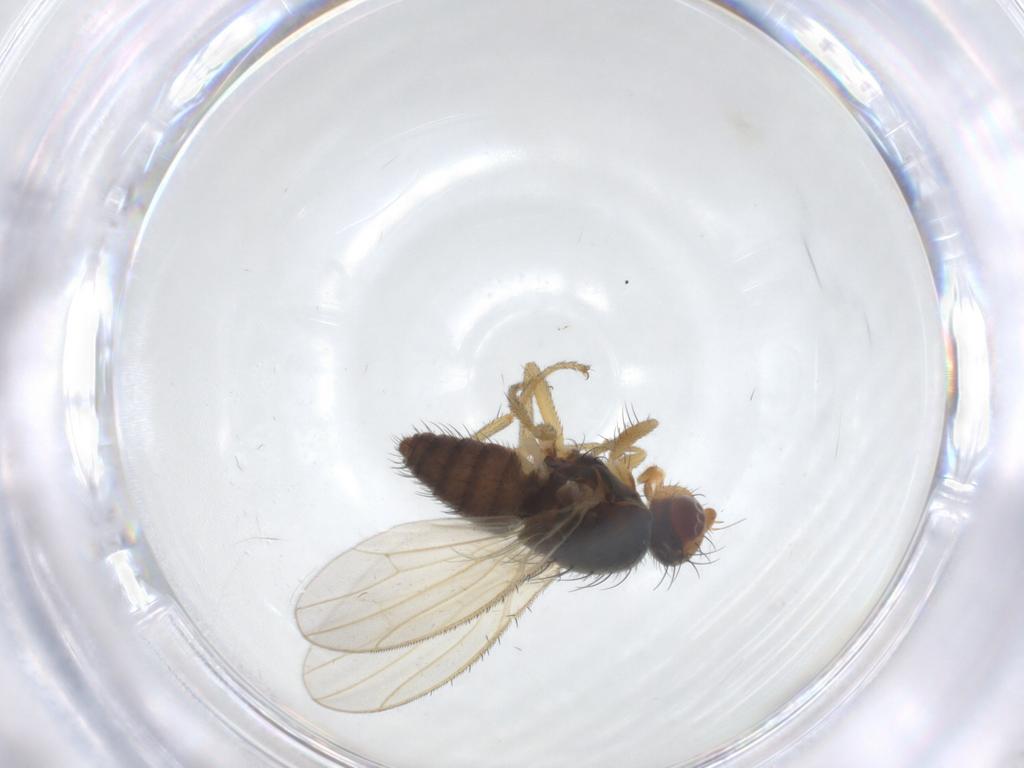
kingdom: Animalia
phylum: Arthropoda
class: Insecta
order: Diptera
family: Heleomyzidae
